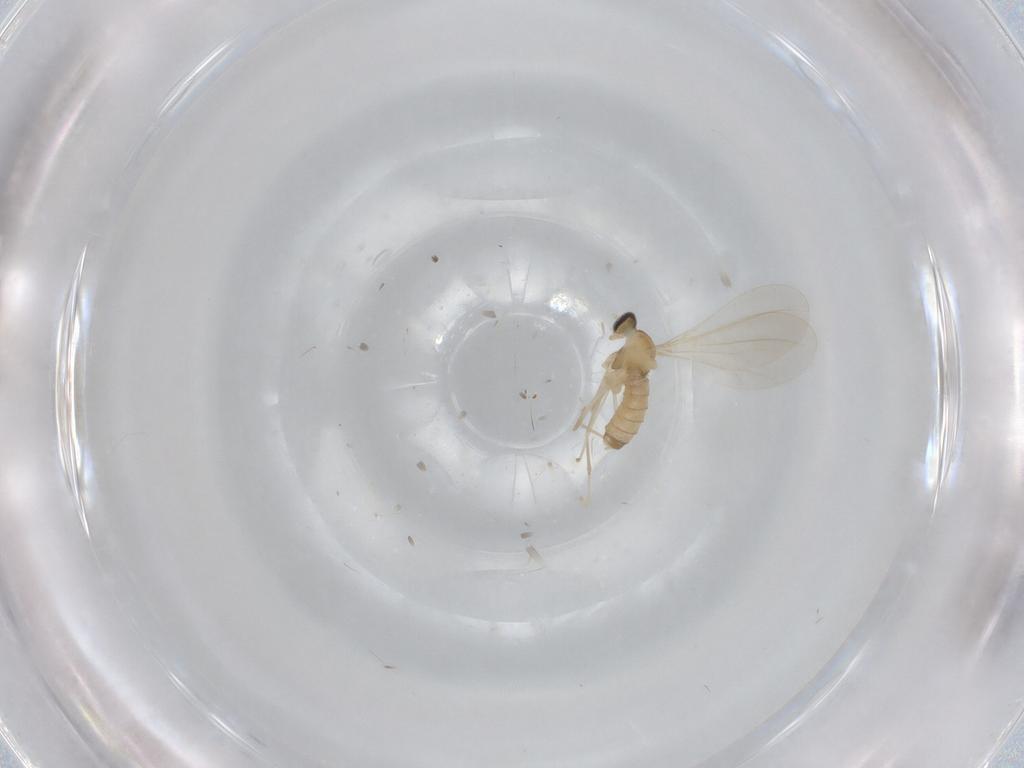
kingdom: Animalia
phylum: Arthropoda
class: Insecta
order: Diptera
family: Cecidomyiidae
